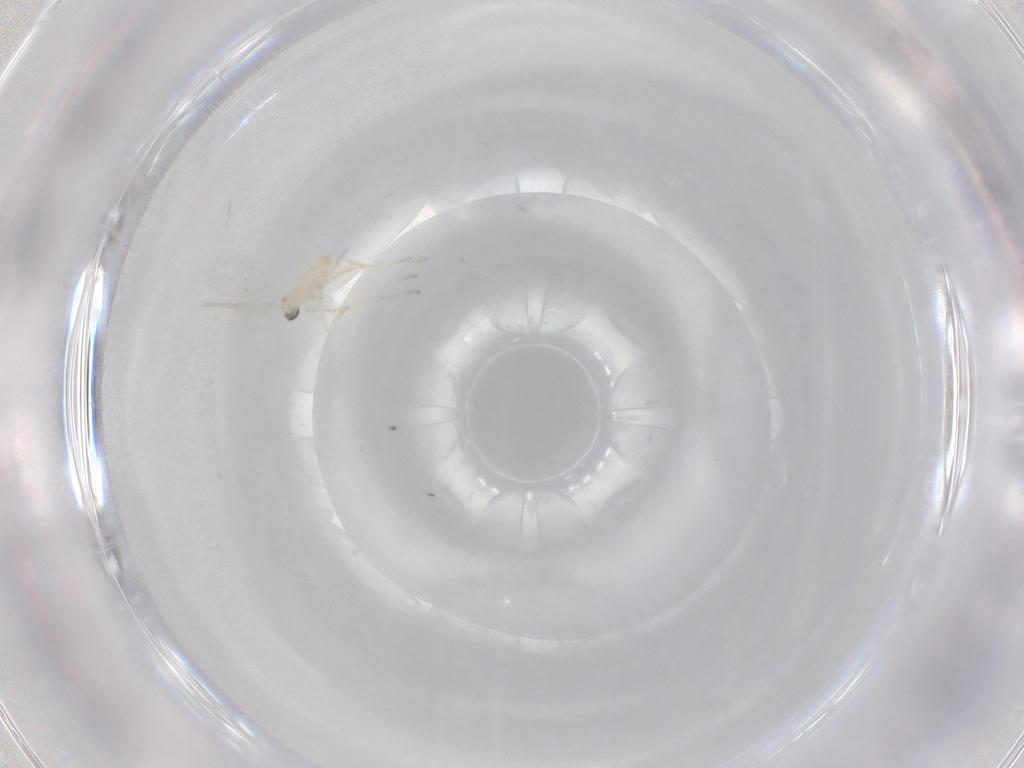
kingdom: Animalia
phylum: Arthropoda
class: Insecta
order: Diptera
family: Cecidomyiidae
